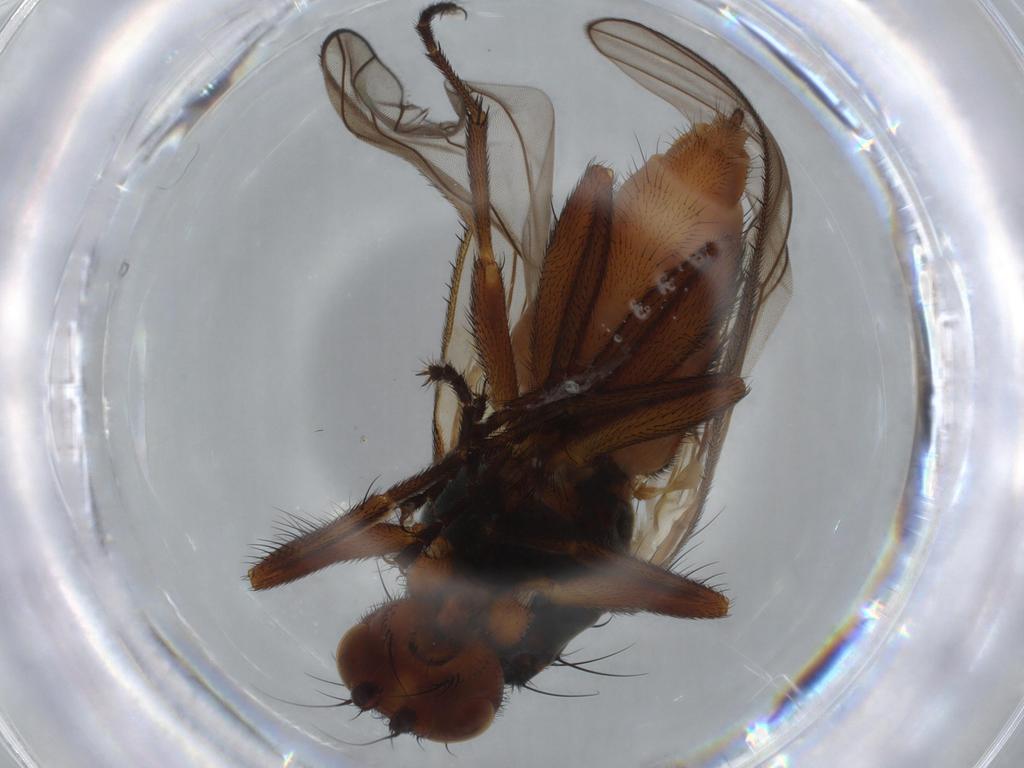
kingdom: Animalia
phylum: Arthropoda
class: Insecta
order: Diptera
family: Heleomyzidae
